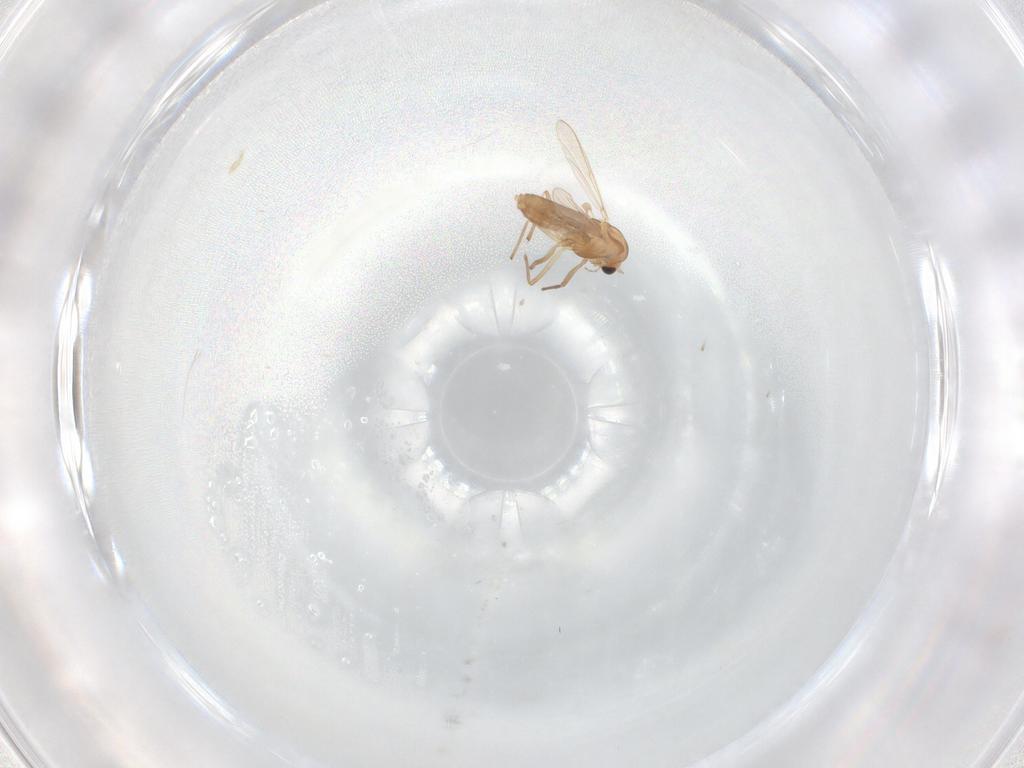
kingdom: Animalia
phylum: Arthropoda
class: Insecta
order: Diptera
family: Chironomidae
